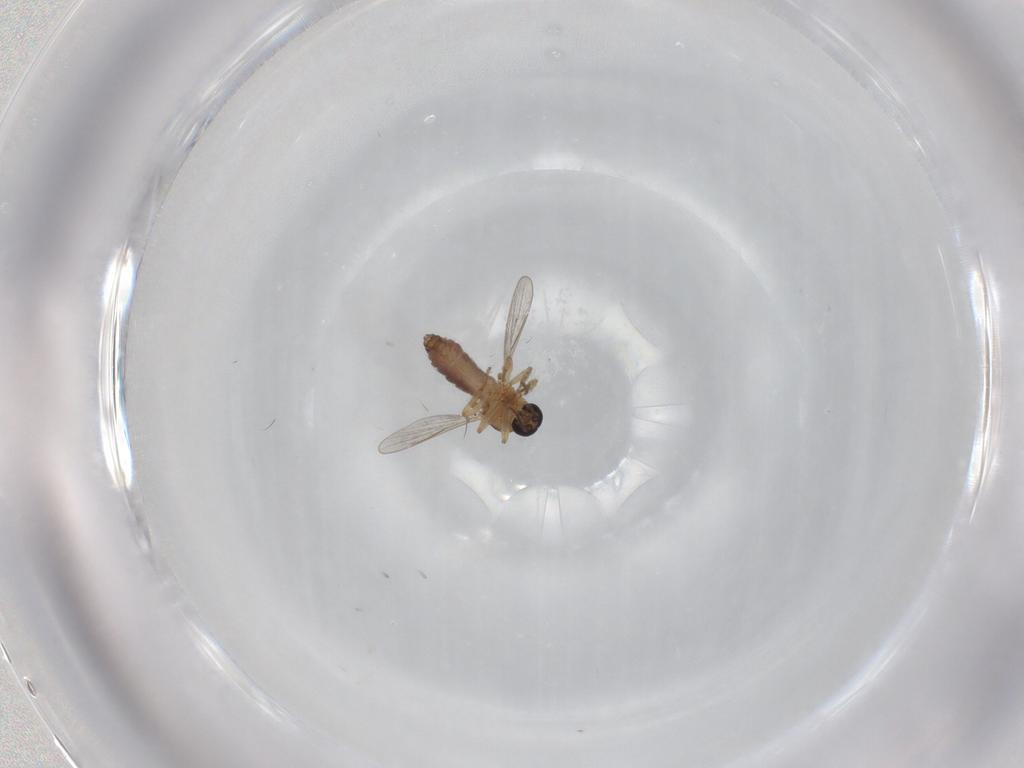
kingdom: Animalia
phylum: Arthropoda
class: Insecta
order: Diptera
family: Ceratopogonidae
